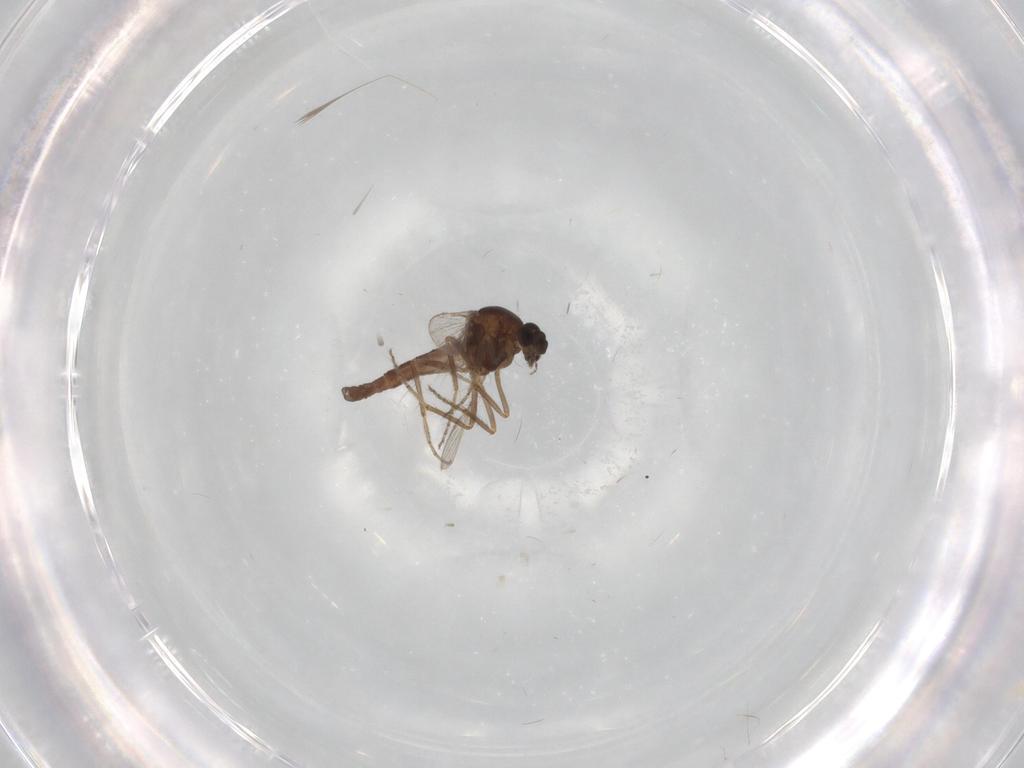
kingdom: Animalia
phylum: Arthropoda
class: Insecta
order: Diptera
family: Ceratopogonidae
